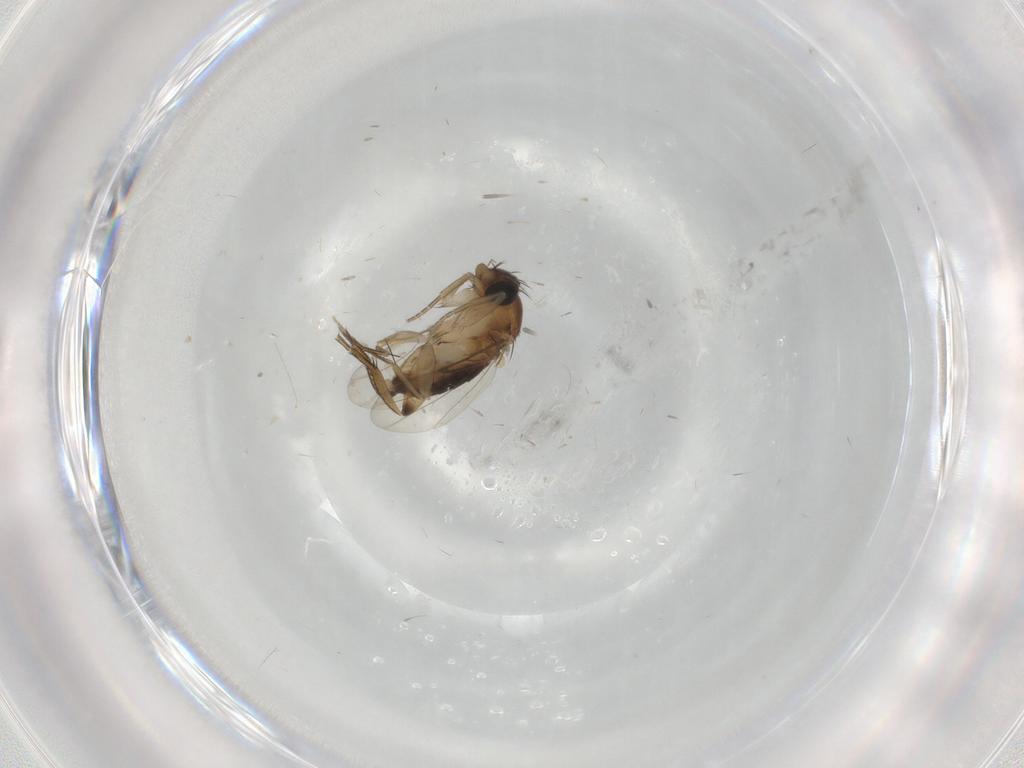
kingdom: Animalia
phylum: Arthropoda
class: Insecta
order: Diptera
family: Phoridae
